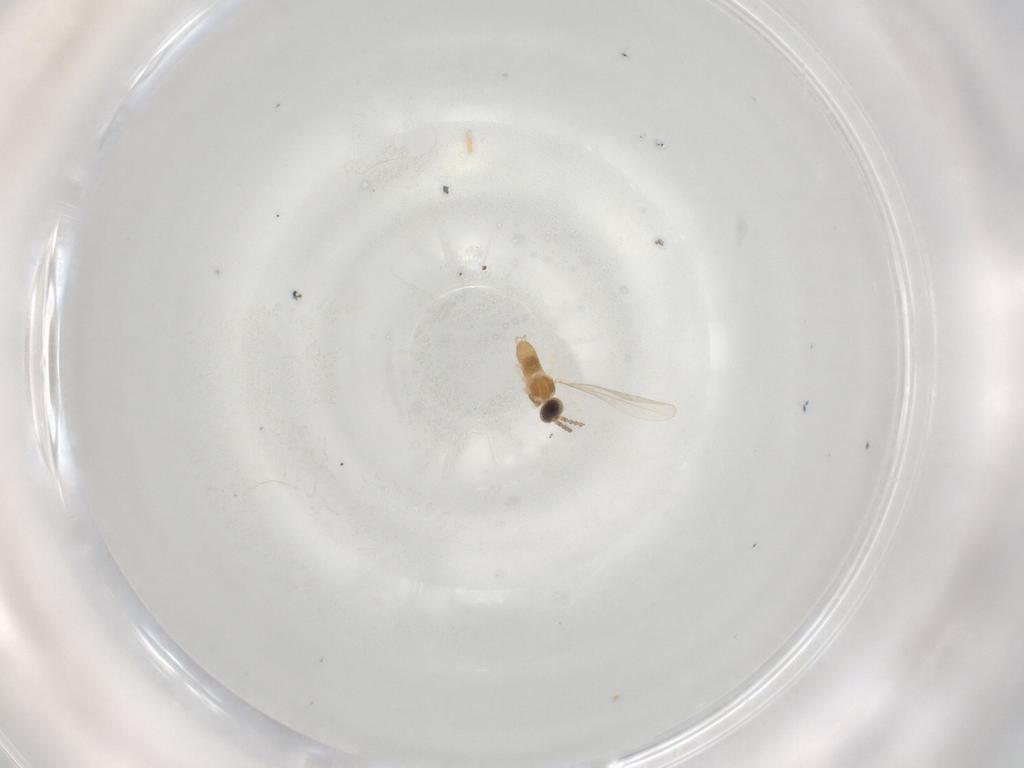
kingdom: Animalia
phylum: Arthropoda
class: Insecta
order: Diptera
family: Cecidomyiidae
